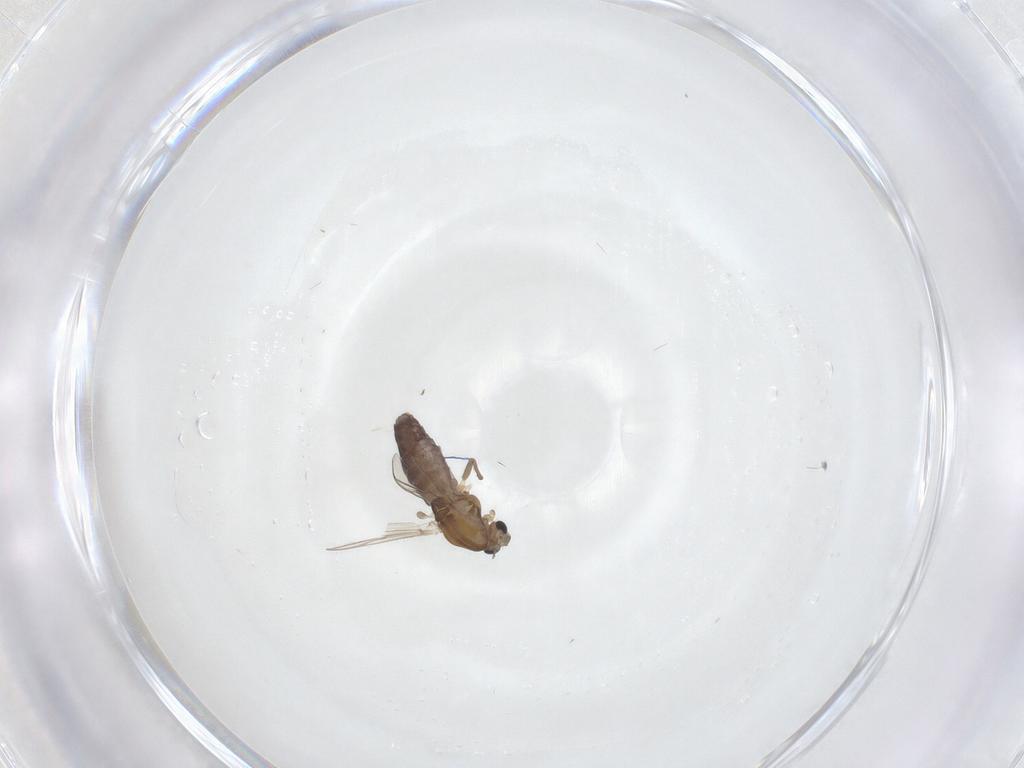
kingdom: Animalia
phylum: Arthropoda
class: Insecta
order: Diptera
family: Chironomidae
